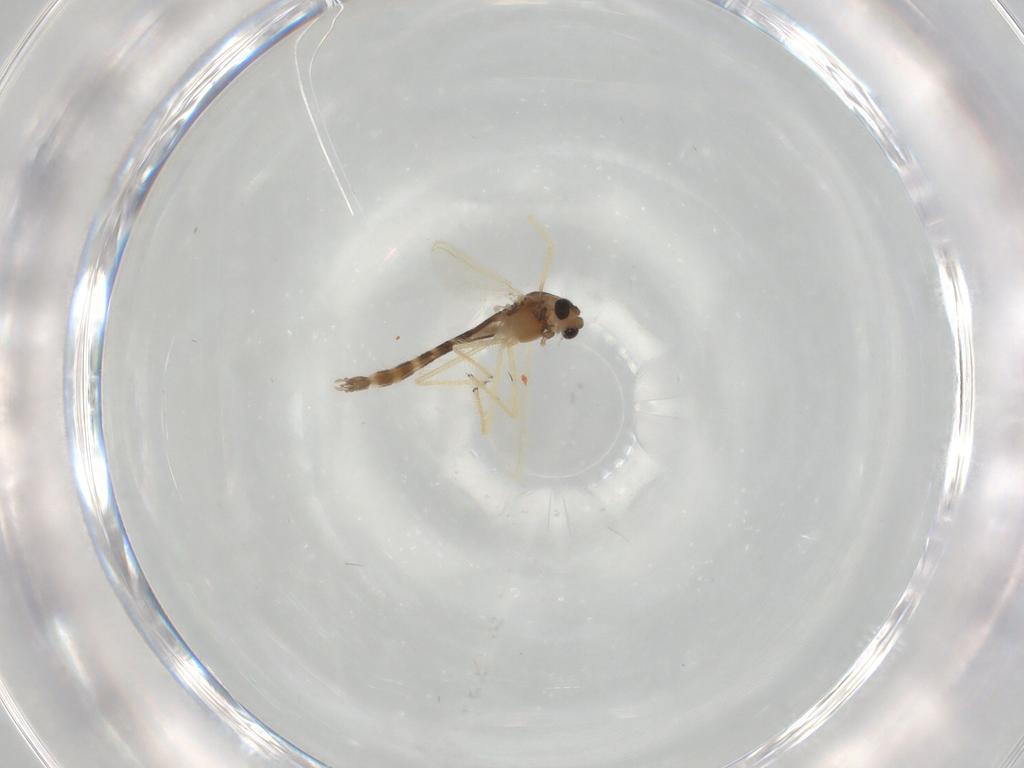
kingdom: Animalia
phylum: Arthropoda
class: Insecta
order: Diptera
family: Chironomidae
